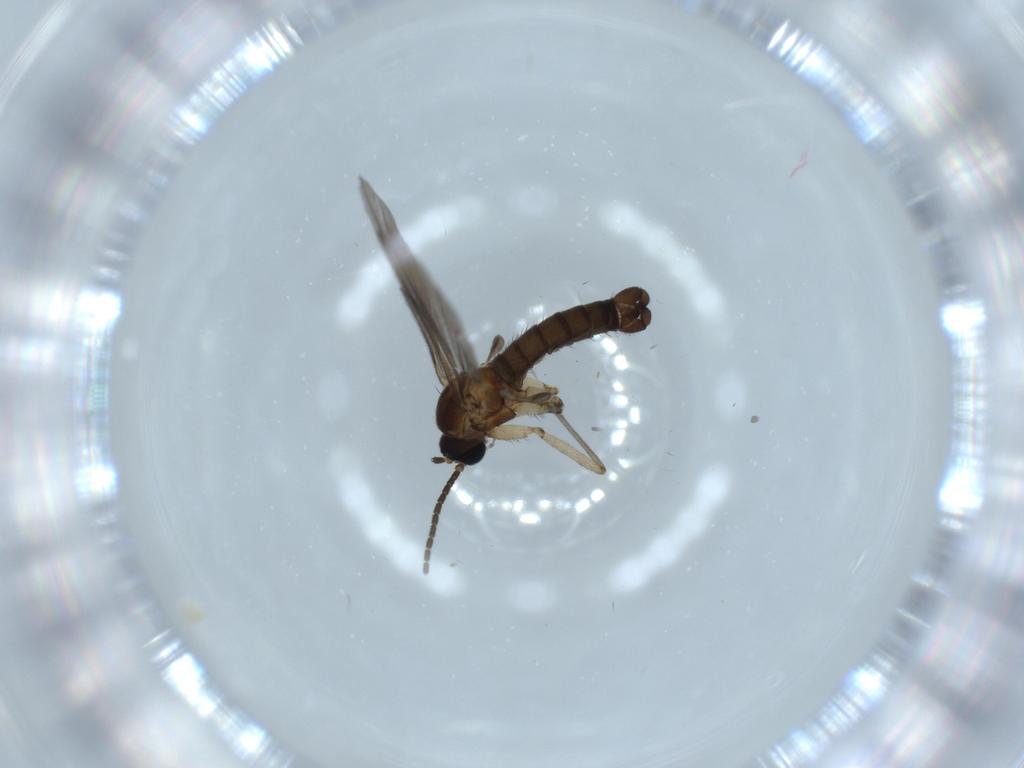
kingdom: Animalia
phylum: Arthropoda
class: Insecta
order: Diptera
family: Sciaridae
